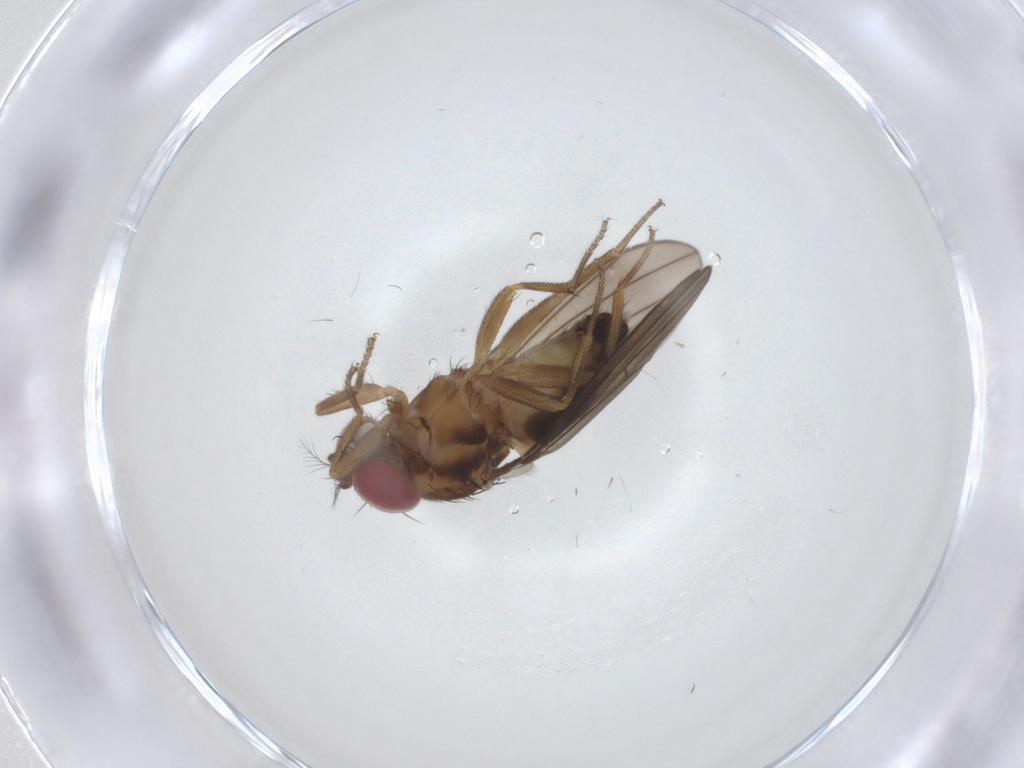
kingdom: Animalia
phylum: Arthropoda
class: Insecta
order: Diptera
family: Drosophilidae
